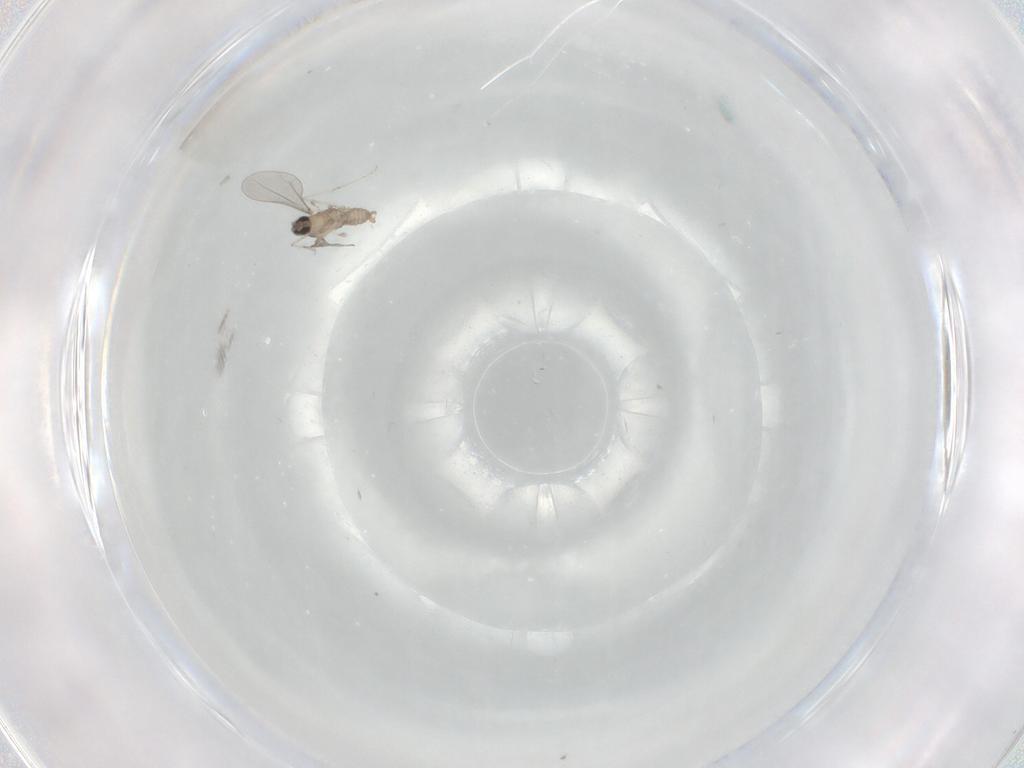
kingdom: Animalia
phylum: Arthropoda
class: Insecta
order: Diptera
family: Cecidomyiidae
